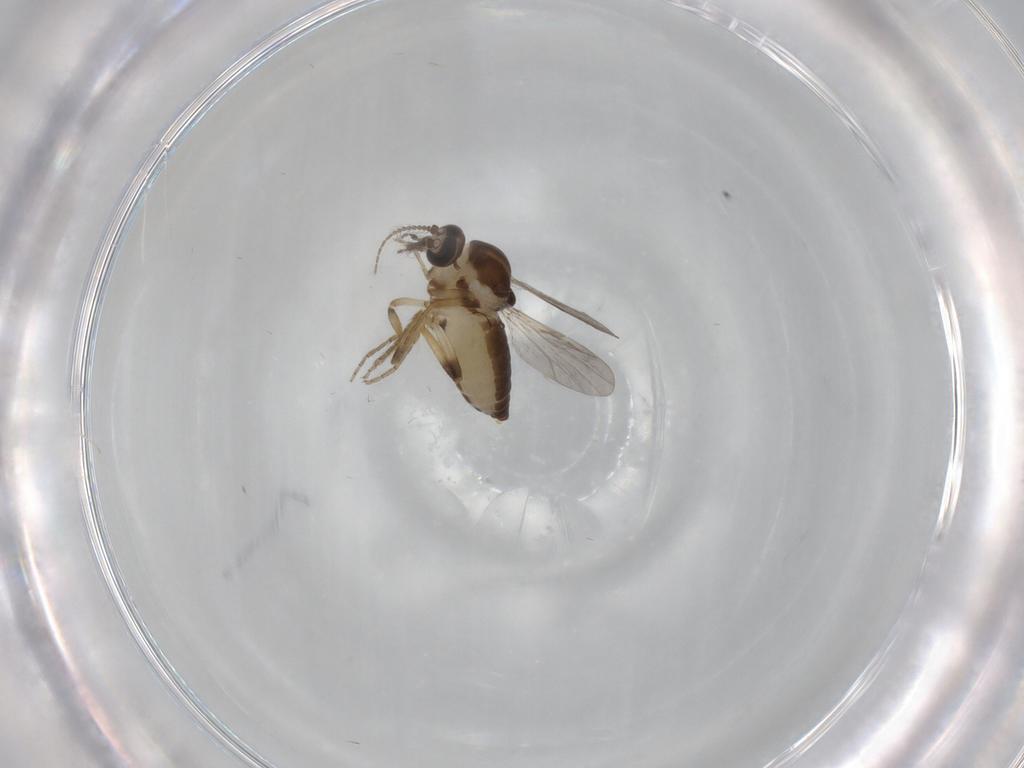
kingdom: Animalia
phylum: Arthropoda
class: Insecta
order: Diptera
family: Ceratopogonidae
